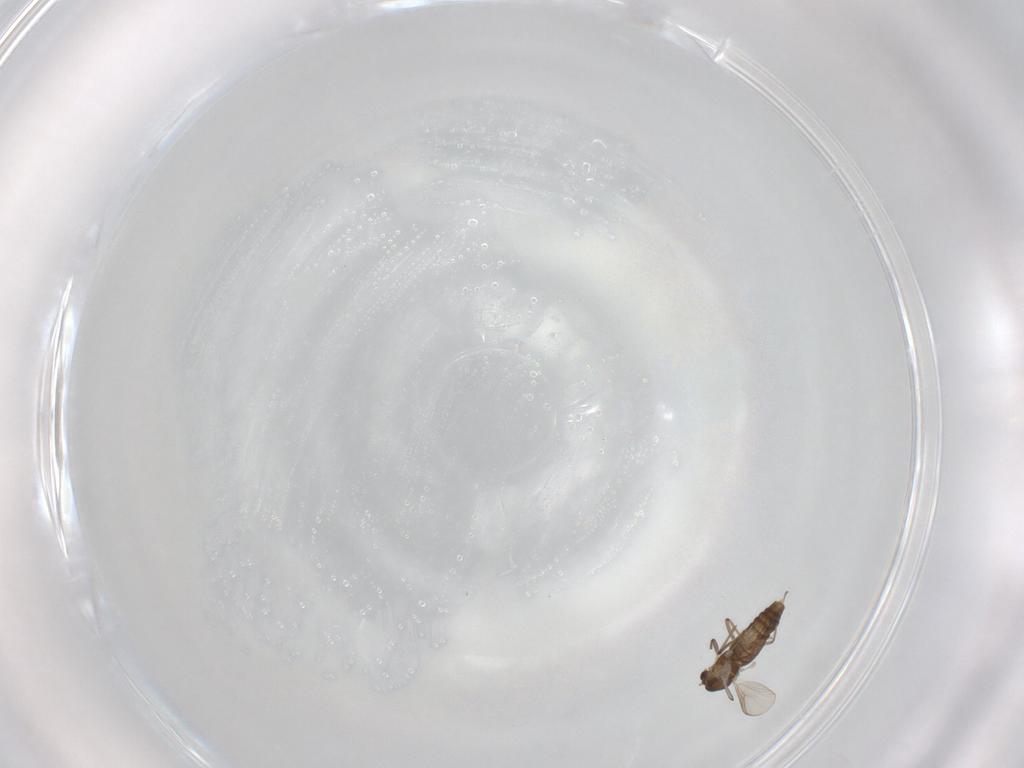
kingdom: Animalia
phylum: Arthropoda
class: Insecta
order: Diptera
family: Chironomidae
